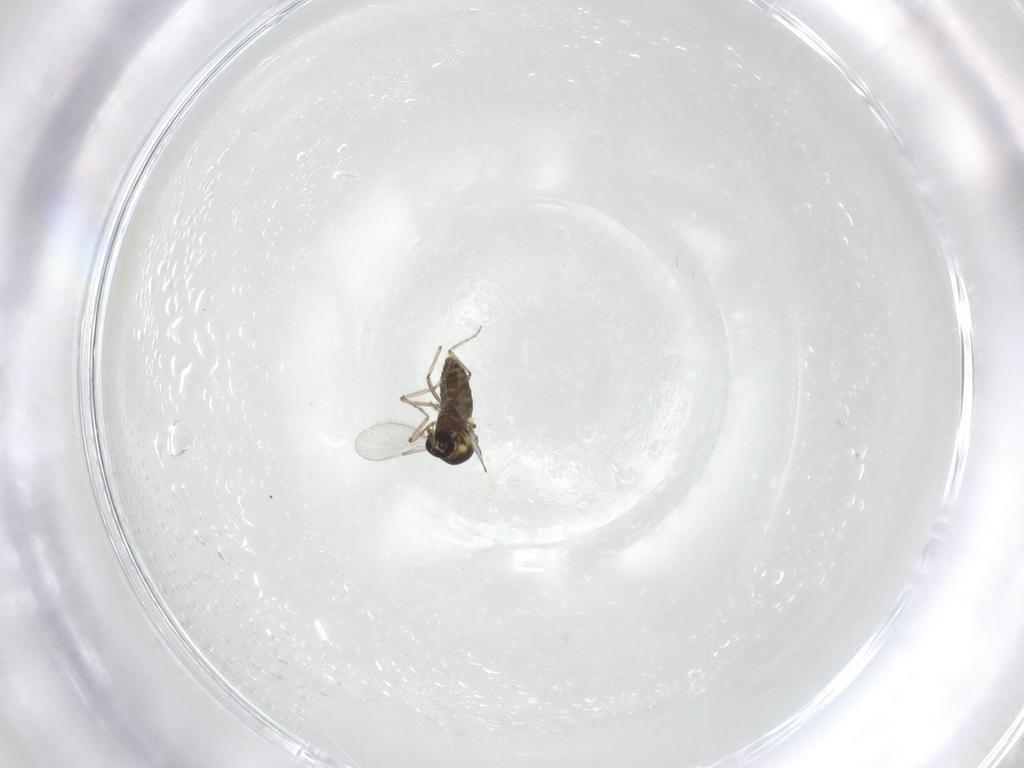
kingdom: Animalia
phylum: Arthropoda
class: Insecta
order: Diptera
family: Ceratopogonidae
